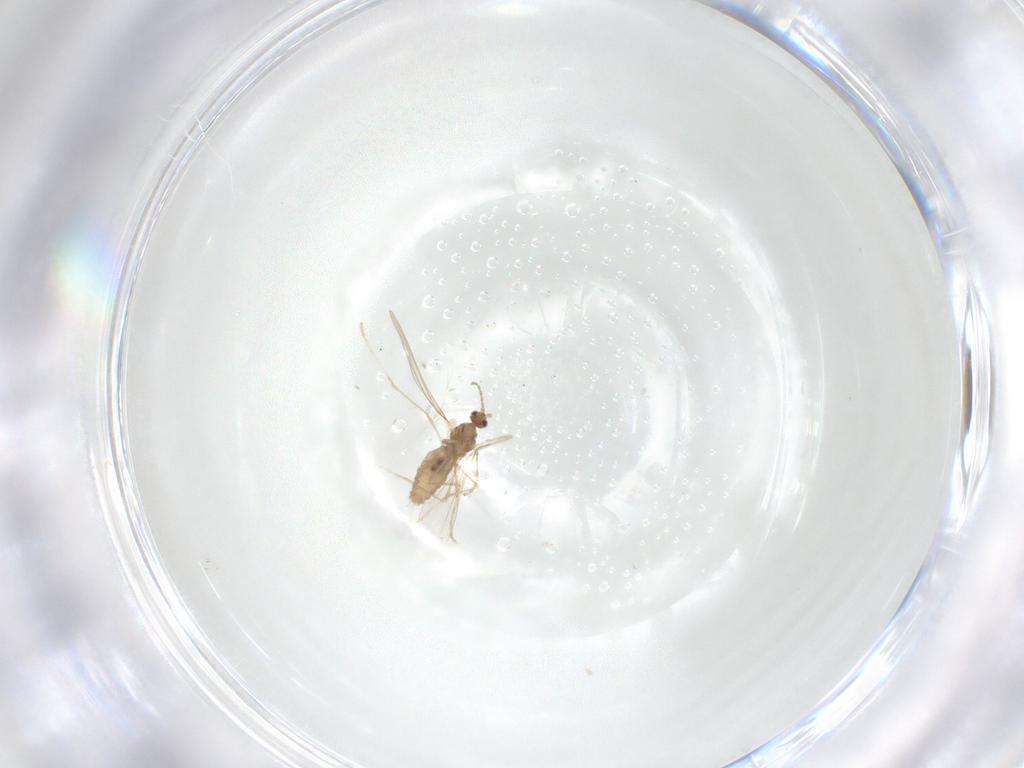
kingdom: Animalia
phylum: Arthropoda
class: Insecta
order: Diptera
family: Cecidomyiidae
